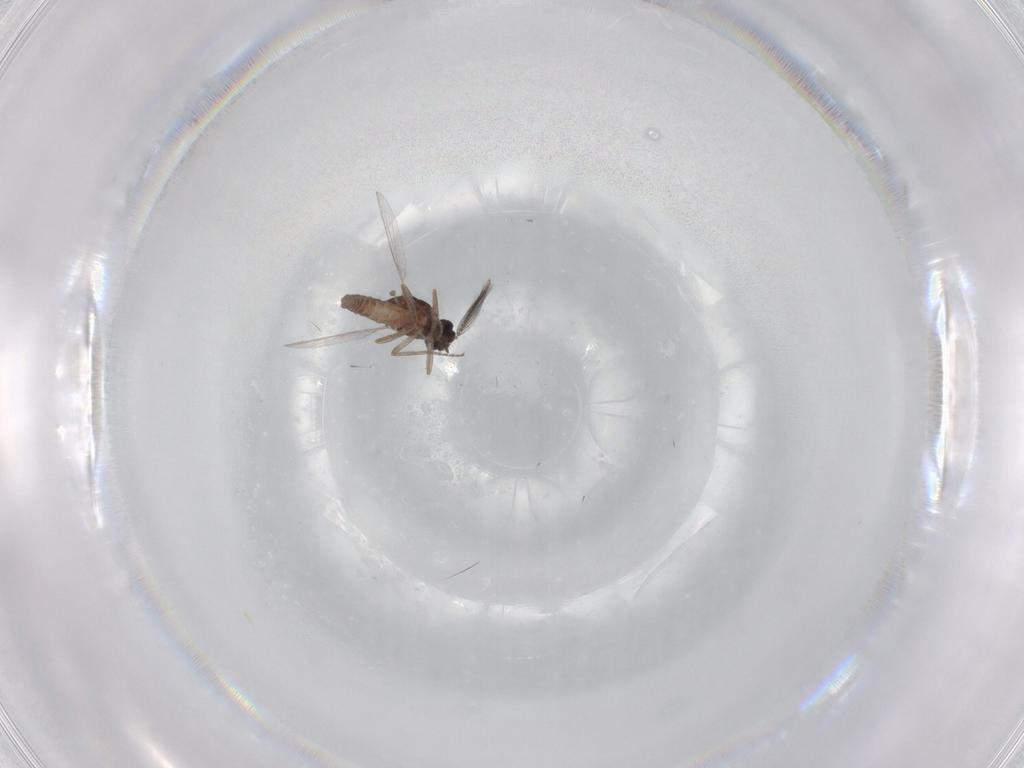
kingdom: Animalia
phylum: Arthropoda
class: Insecta
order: Diptera
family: Ceratopogonidae
